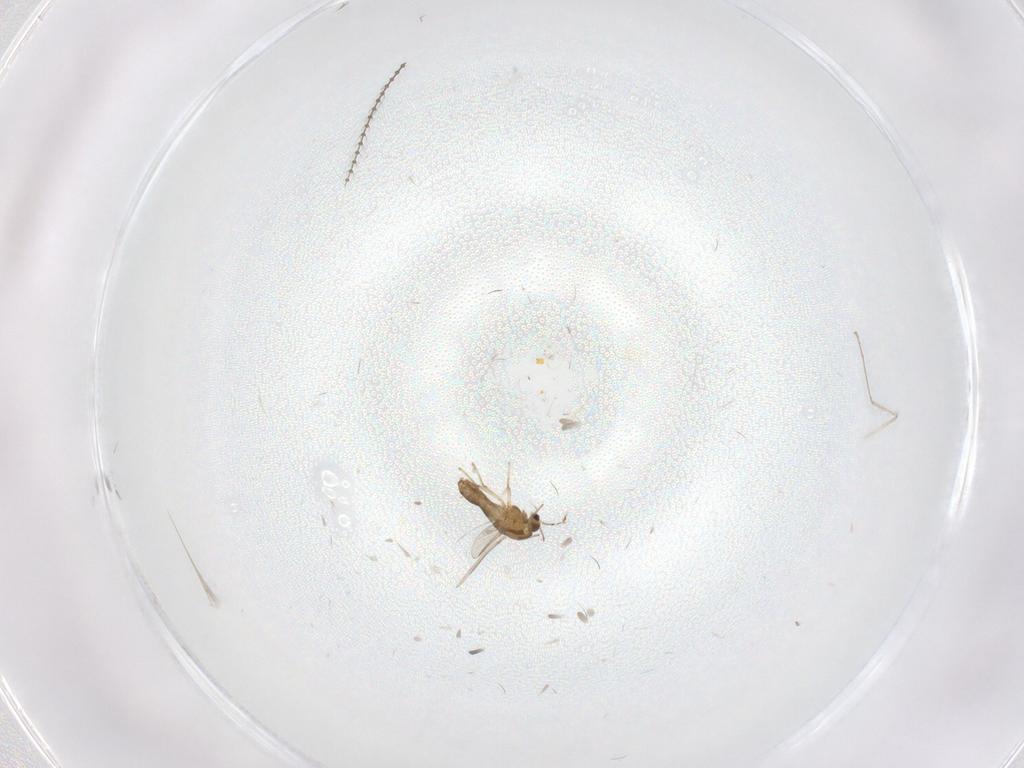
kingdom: Animalia
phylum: Arthropoda
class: Insecta
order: Diptera
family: Chironomidae
